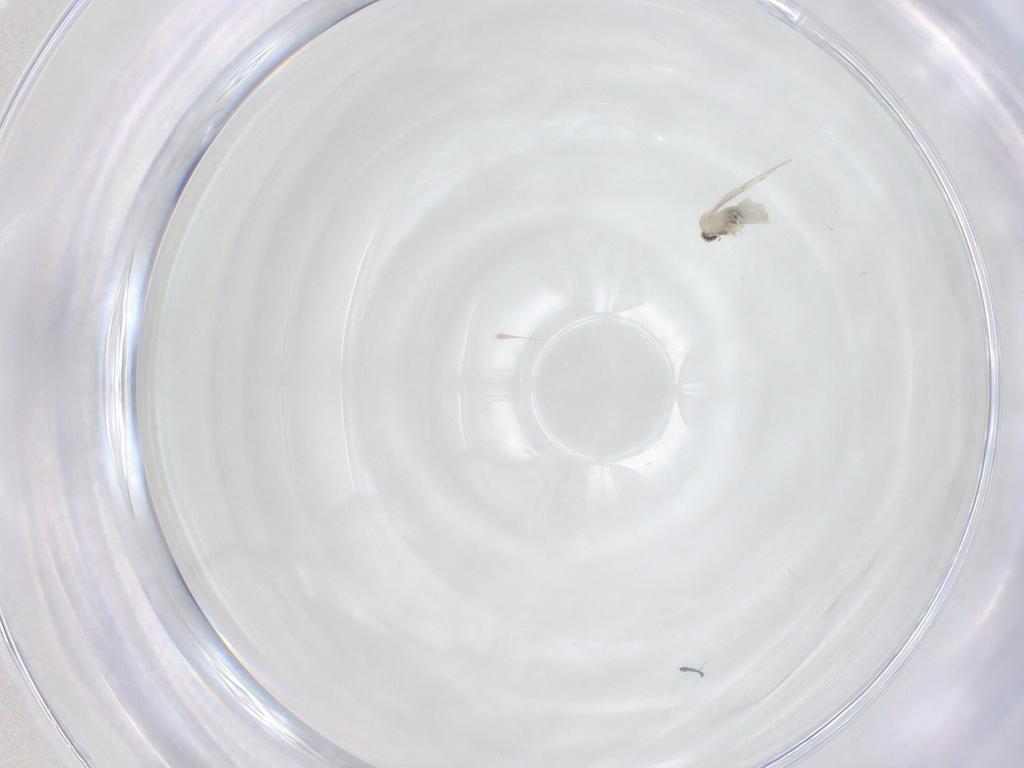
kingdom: Animalia
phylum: Arthropoda
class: Insecta
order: Diptera
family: Cecidomyiidae
